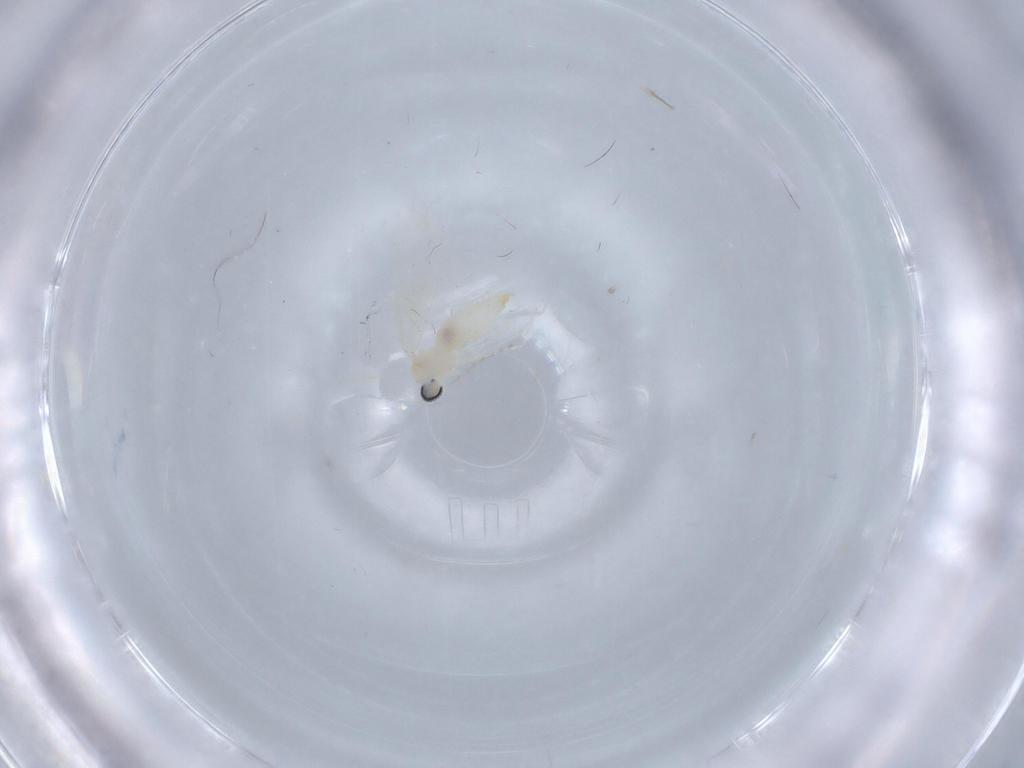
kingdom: Animalia
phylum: Arthropoda
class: Insecta
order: Diptera
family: Cecidomyiidae
